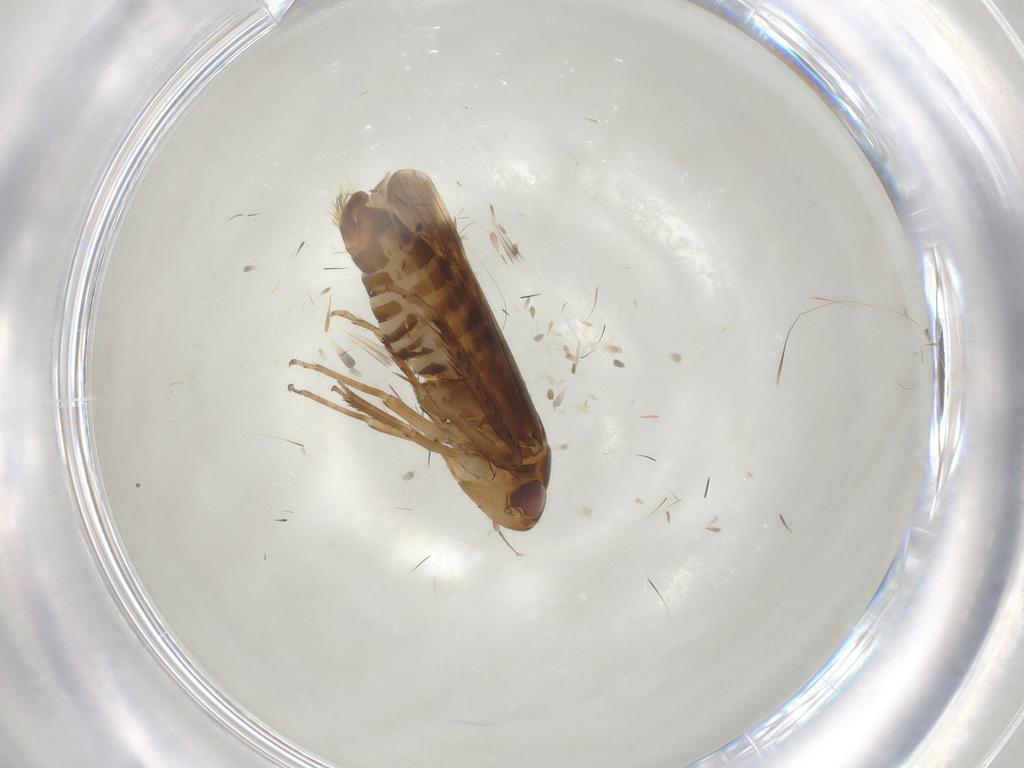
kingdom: Animalia
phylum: Arthropoda
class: Insecta
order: Hemiptera
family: Cicadellidae
